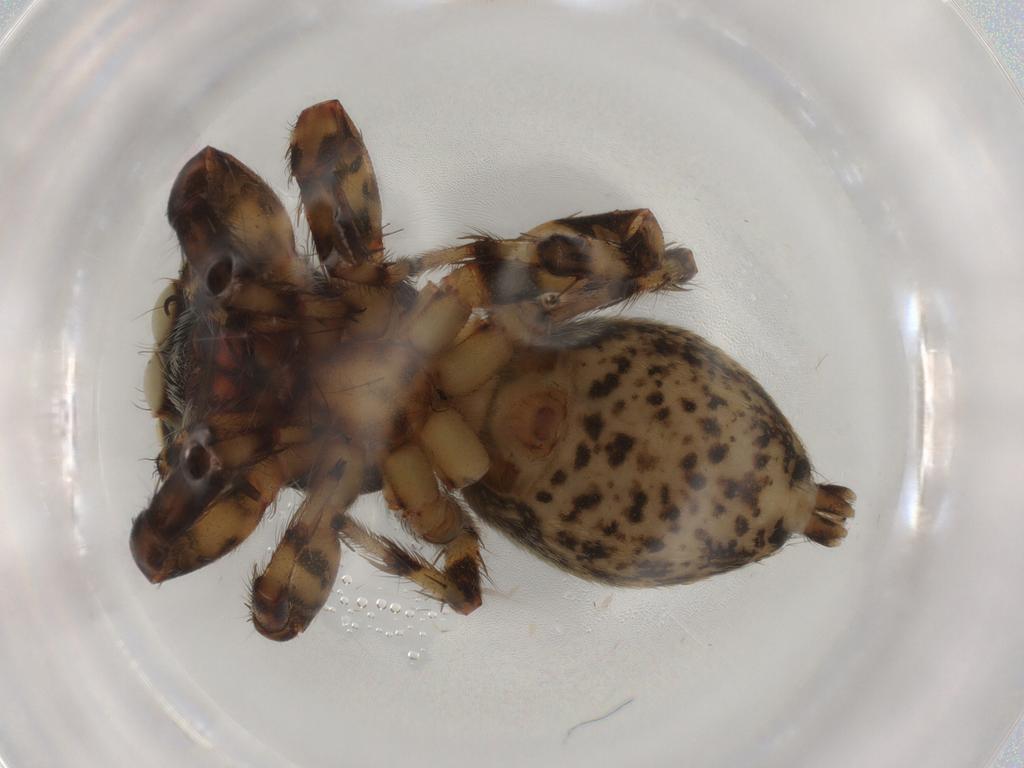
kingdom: Animalia
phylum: Arthropoda
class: Arachnida
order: Araneae
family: Salticidae
